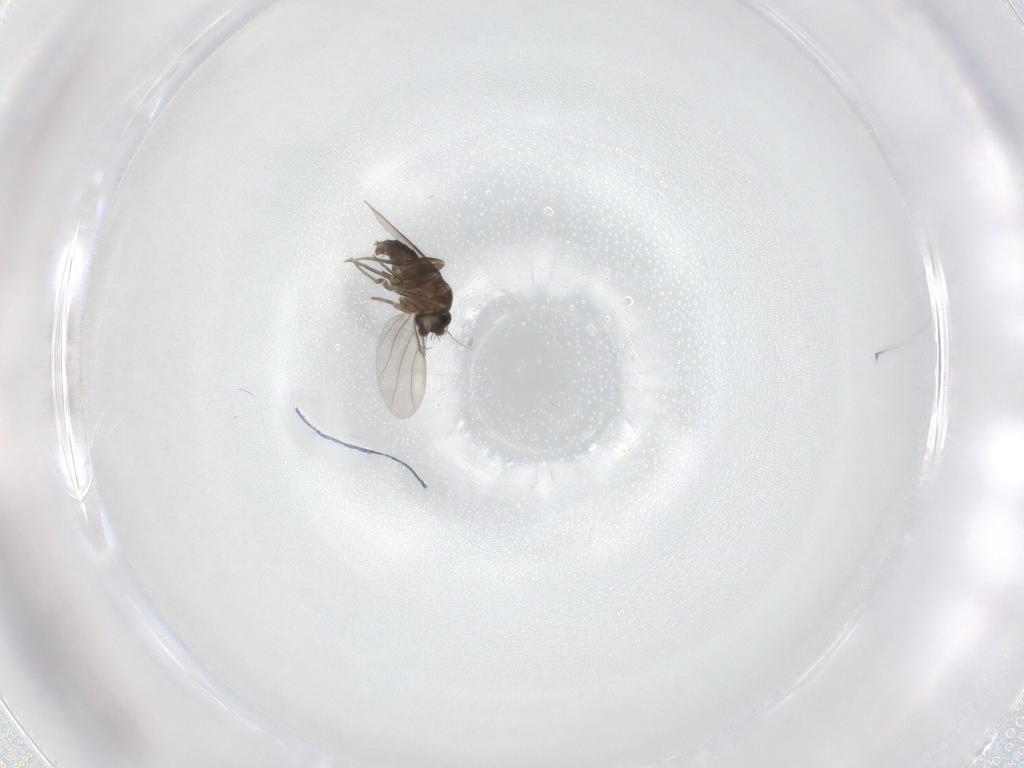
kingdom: Animalia
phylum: Arthropoda
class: Insecta
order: Diptera
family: Phoridae
